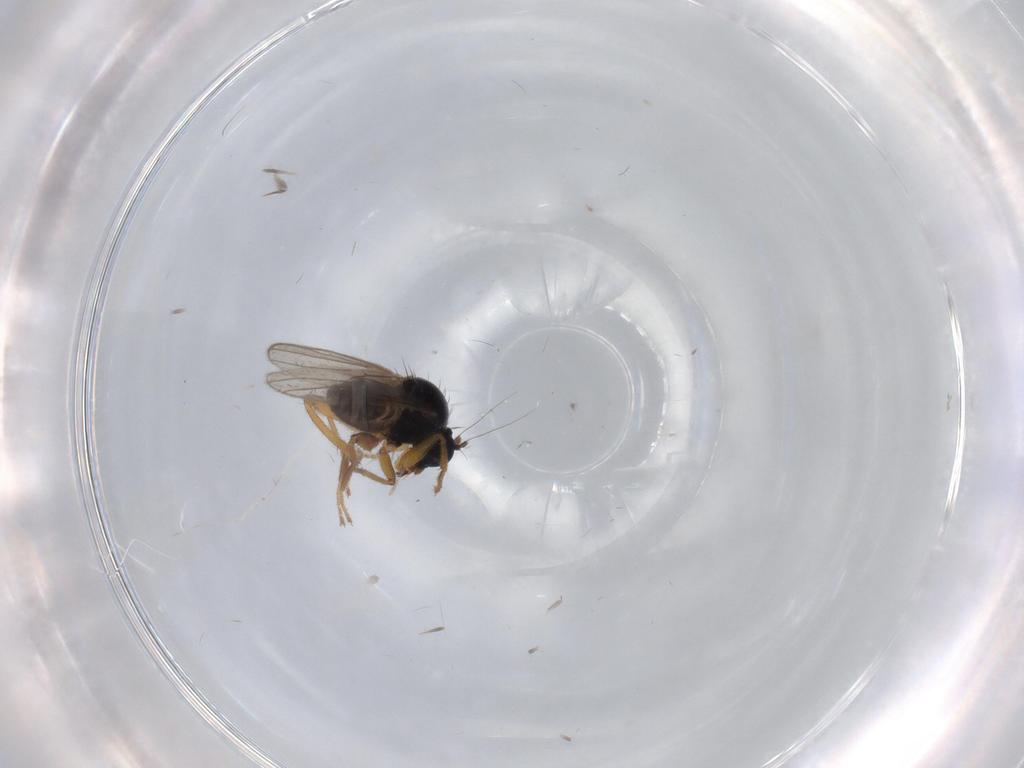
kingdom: Animalia
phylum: Arthropoda
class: Insecta
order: Diptera
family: Hybotidae
